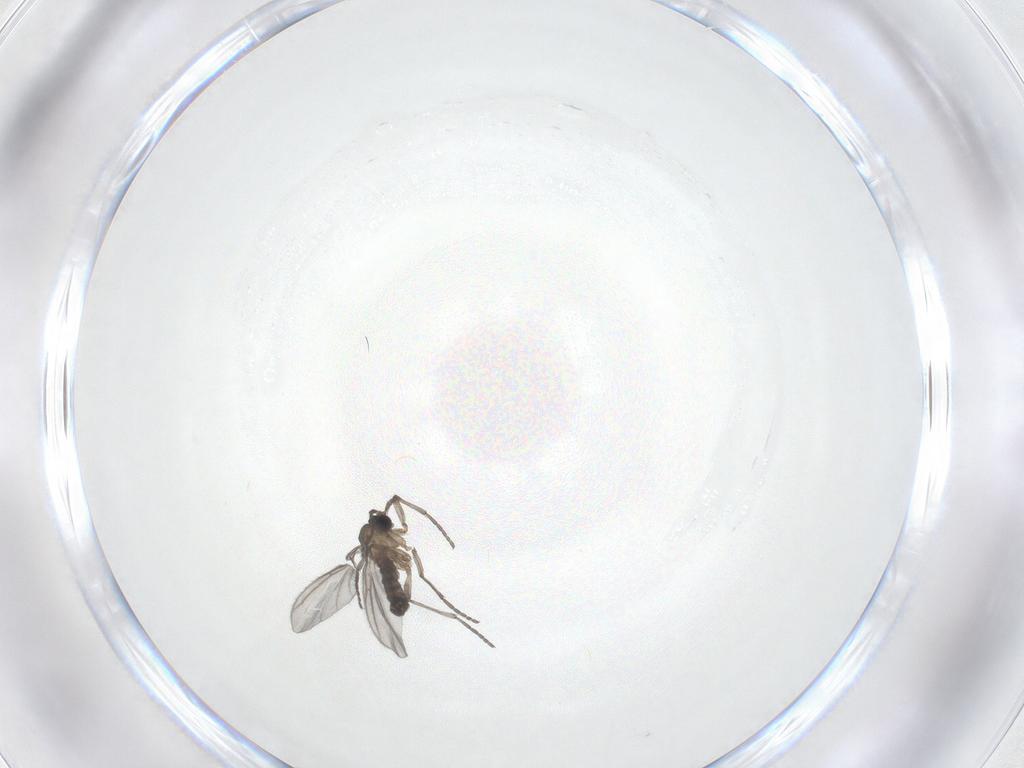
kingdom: Animalia
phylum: Arthropoda
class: Insecta
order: Diptera
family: Sciaridae
